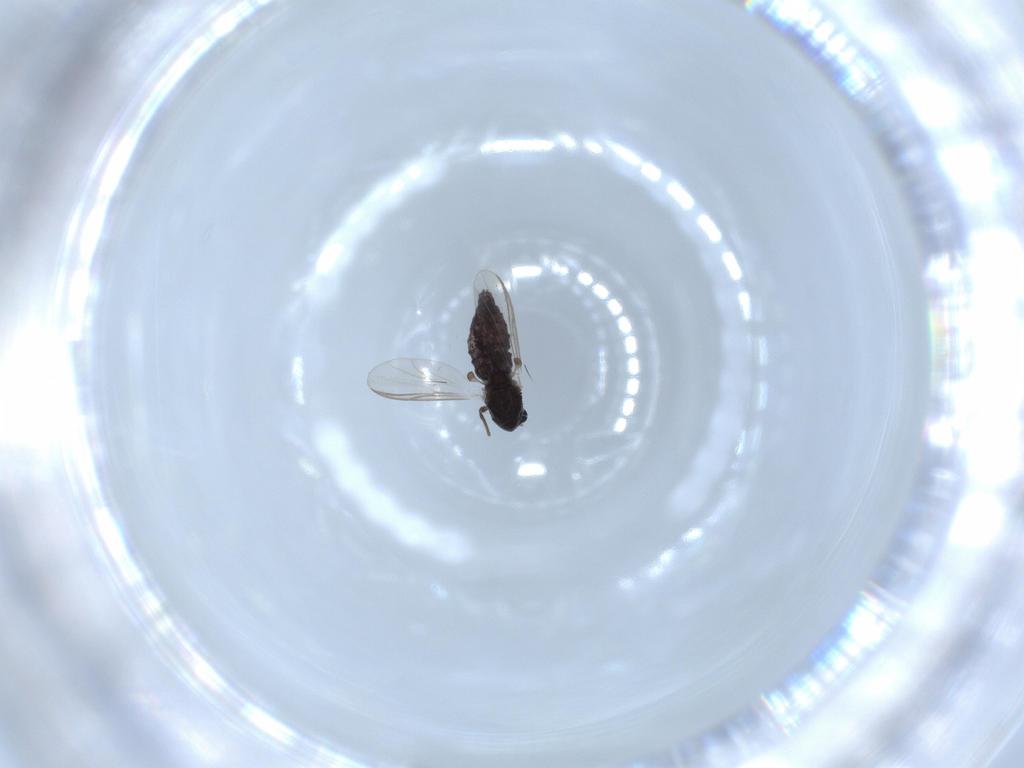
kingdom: Animalia
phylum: Arthropoda
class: Insecta
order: Diptera
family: Chironomidae
